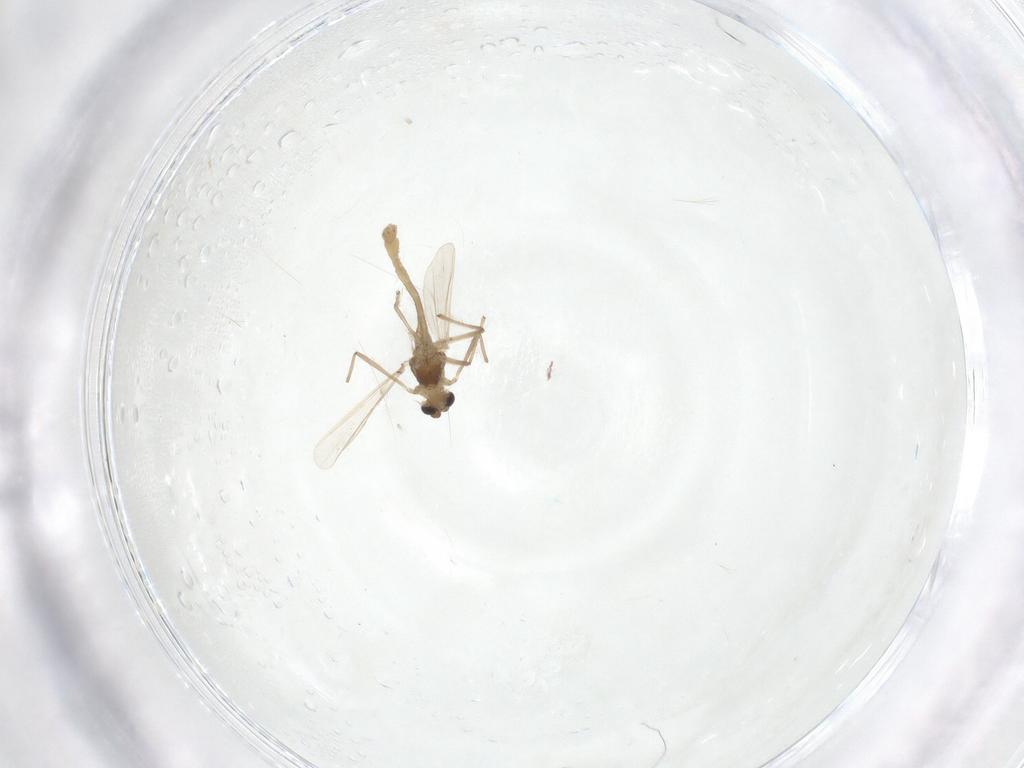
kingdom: Animalia
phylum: Arthropoda
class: Insecta
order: Diptera
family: Chironomidae
